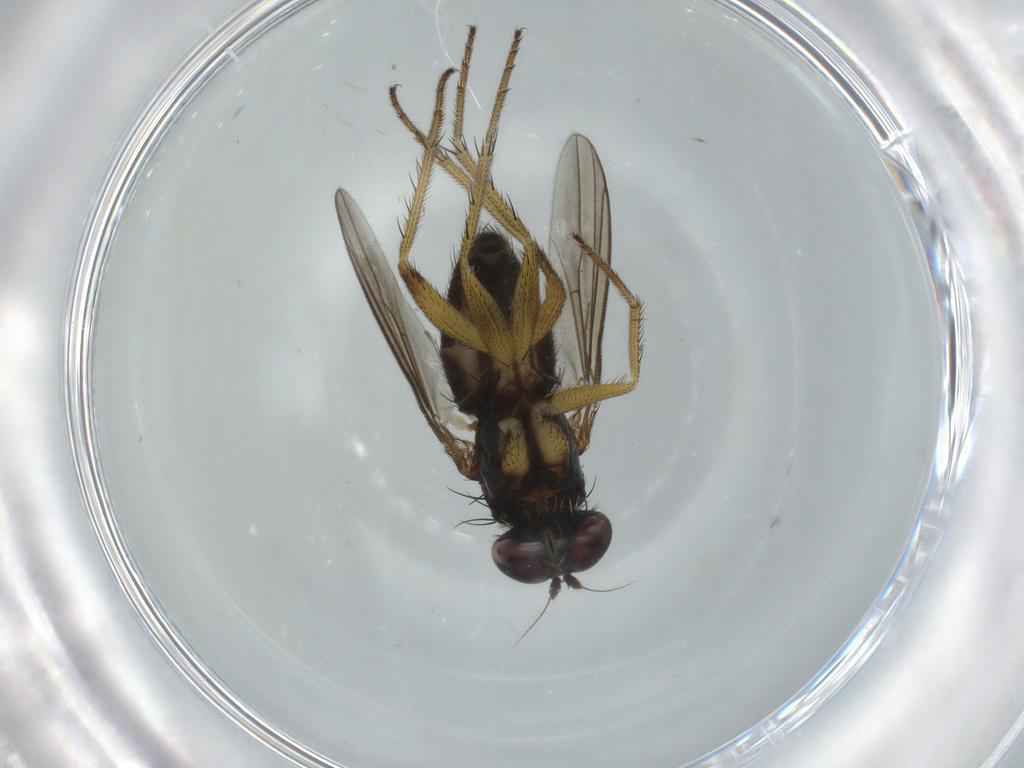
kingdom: Animalia
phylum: Arthropoda
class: Insecta
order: Diptera
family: Dolichopodidae
